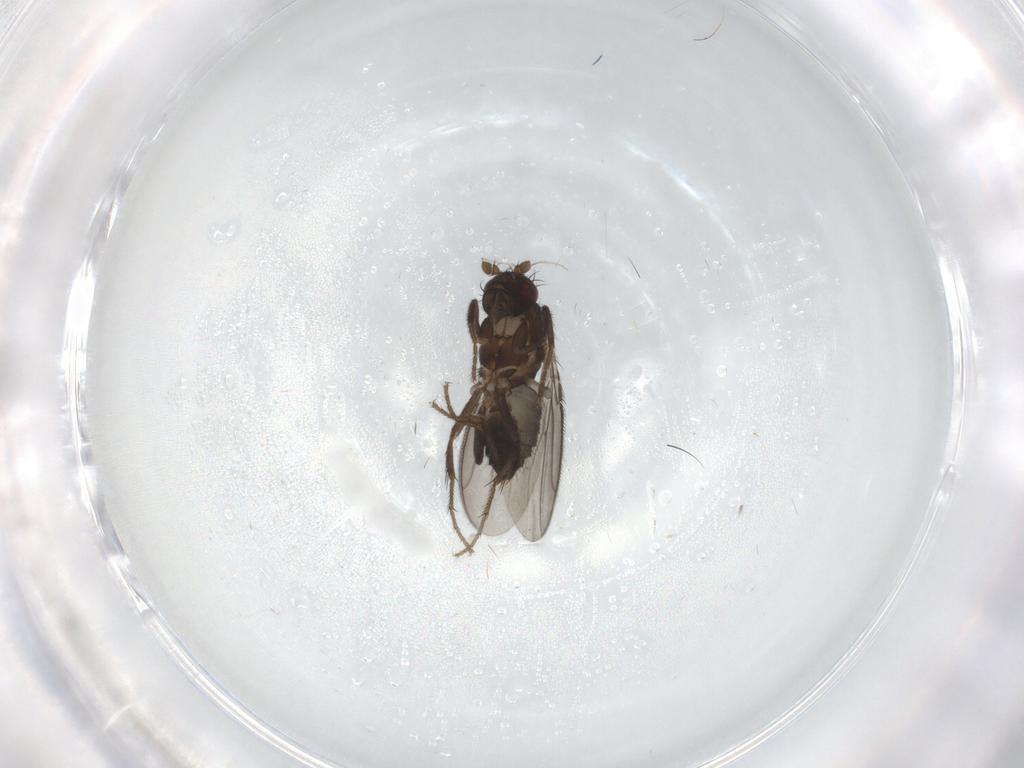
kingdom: Animalia
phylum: Arthropoda
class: Insecta
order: Diptera
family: Sphaeroceridae
